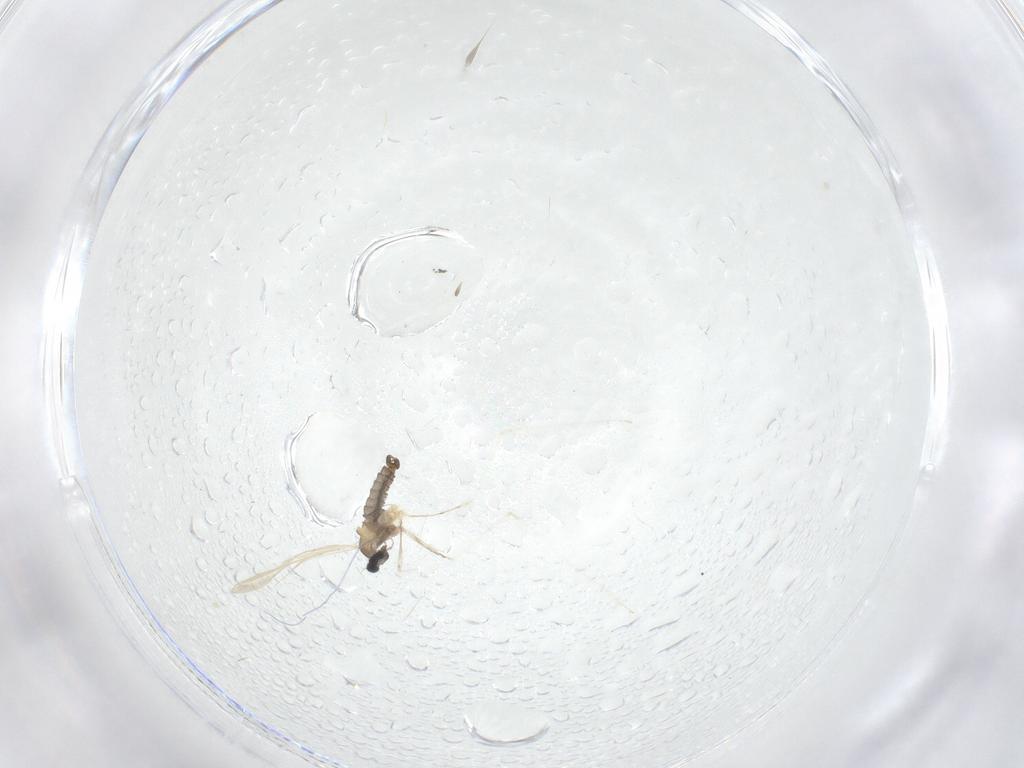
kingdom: Animalia
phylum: Arthropoda
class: Insecta
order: Diptera
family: Cecidomyiidae
